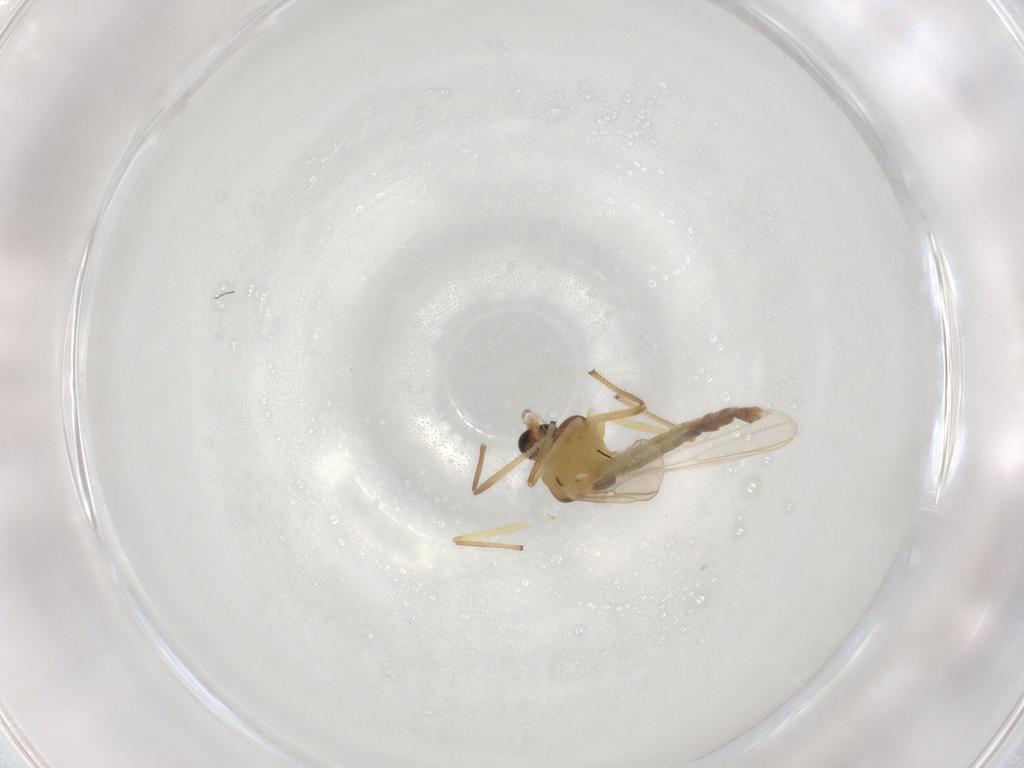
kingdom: Animalia
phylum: Arthropoda
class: Insecta
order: Diptera
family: Chironomidae
